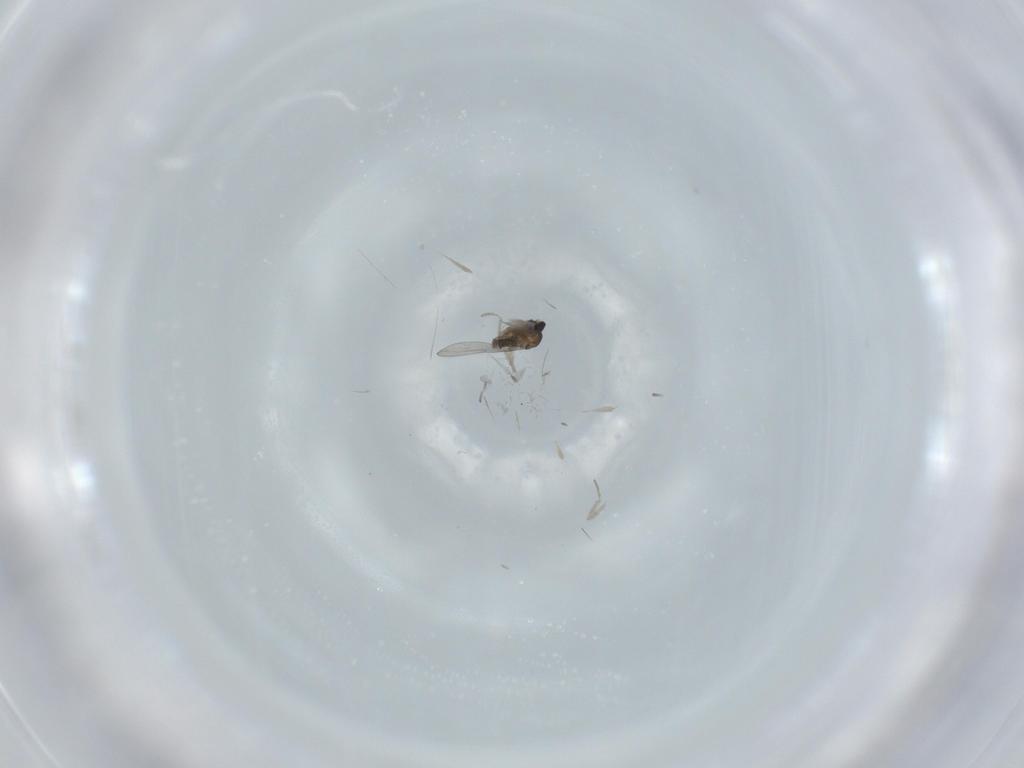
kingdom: Animalia
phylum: Arthropoda
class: Insecta
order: Diptera
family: Cecidomyiidae
